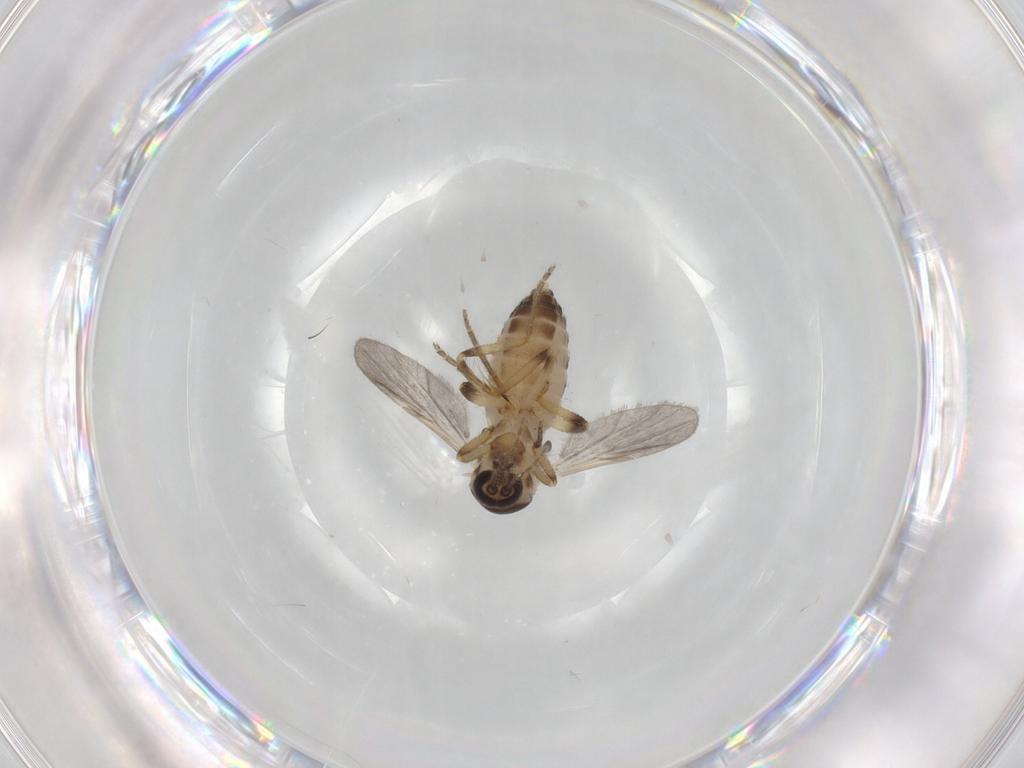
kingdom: Animalia
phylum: Arthropoda
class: Insecta
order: Diptera
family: Ceratopogonidae
